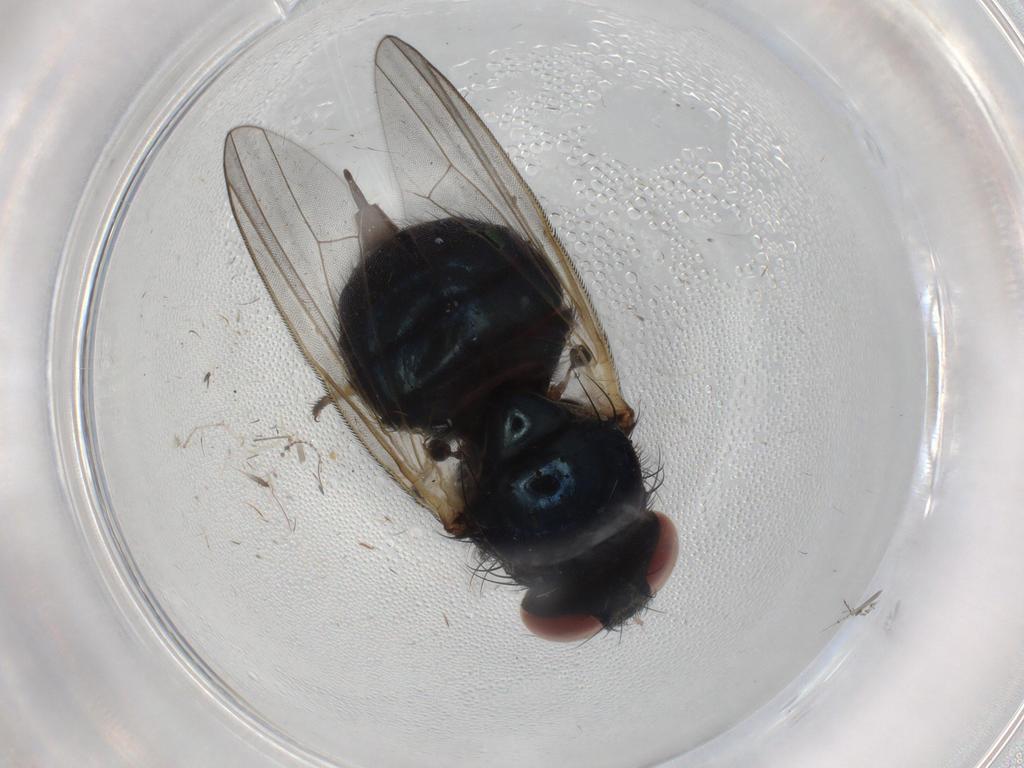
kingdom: Animalia
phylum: Arthropoda
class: Insecta
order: Diptera
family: Lonchaeidae
